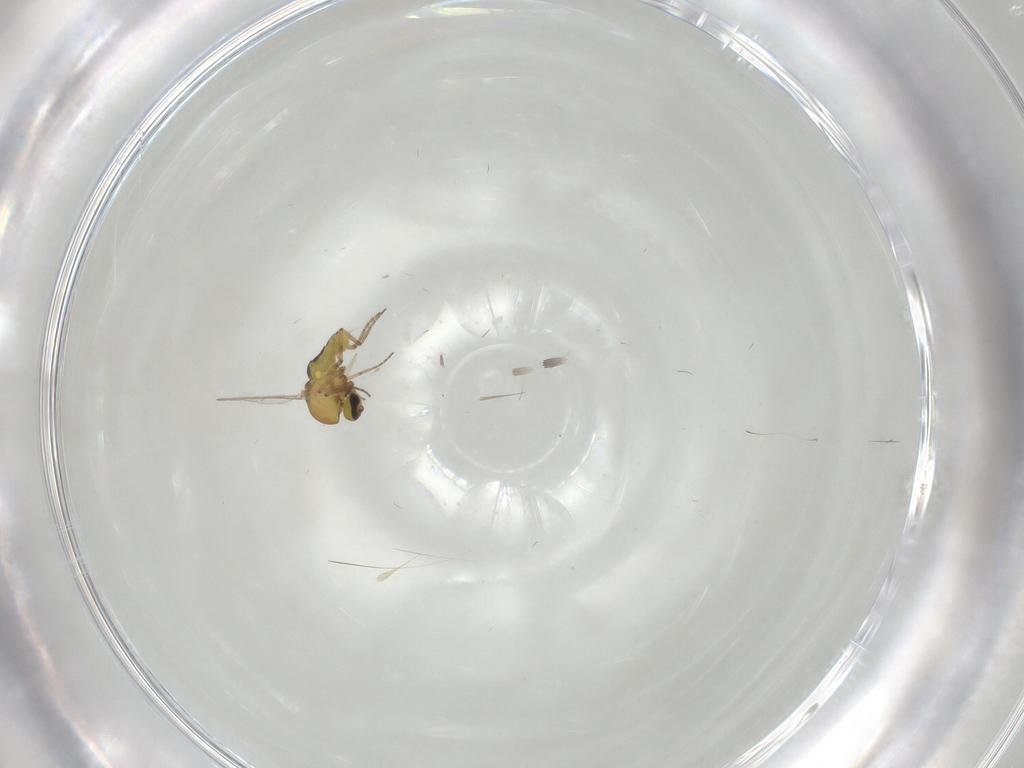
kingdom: Animalia
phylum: Arthropoda
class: Insecta
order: Diptera
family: Ceratopogonidae
